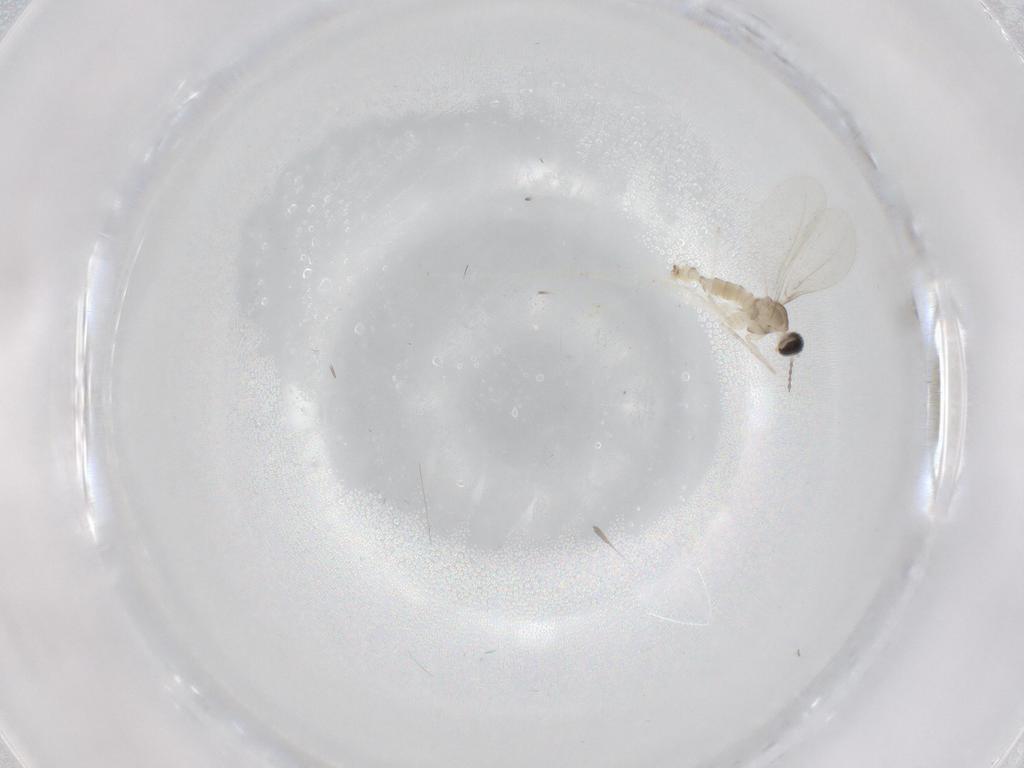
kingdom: Animalia
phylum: Arthropoda
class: Insecta
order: Diptera
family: Cecidomyiidae
